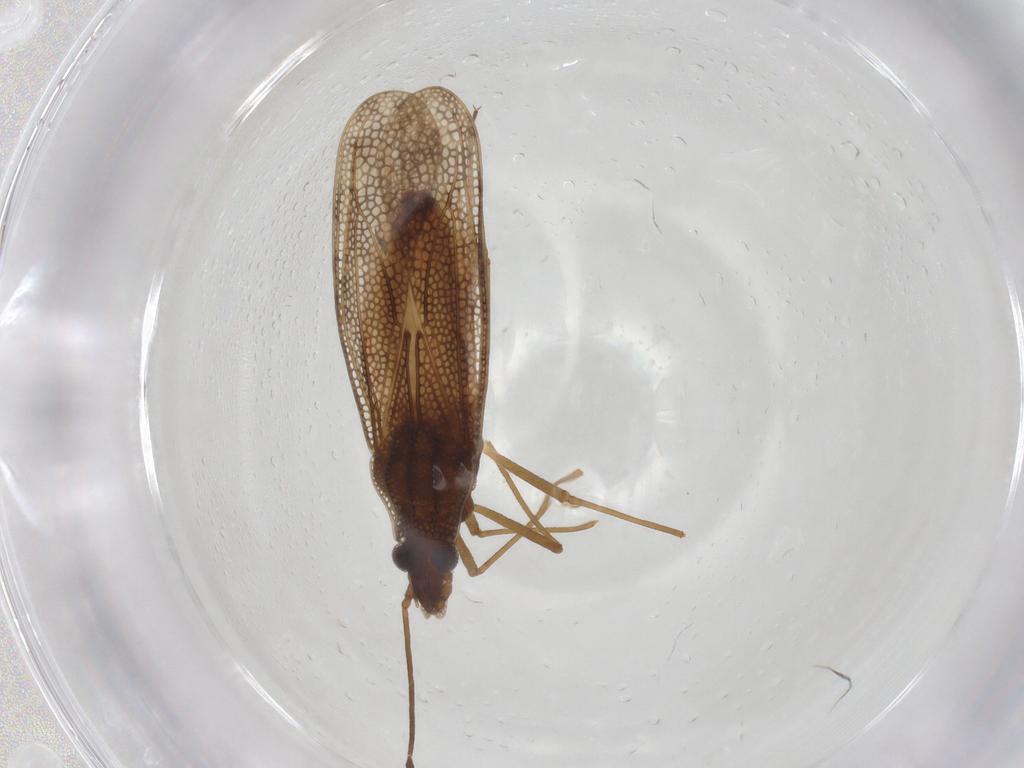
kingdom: Animalia
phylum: Arthropoda
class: Insecta
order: Hemiptera
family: Tingidae
